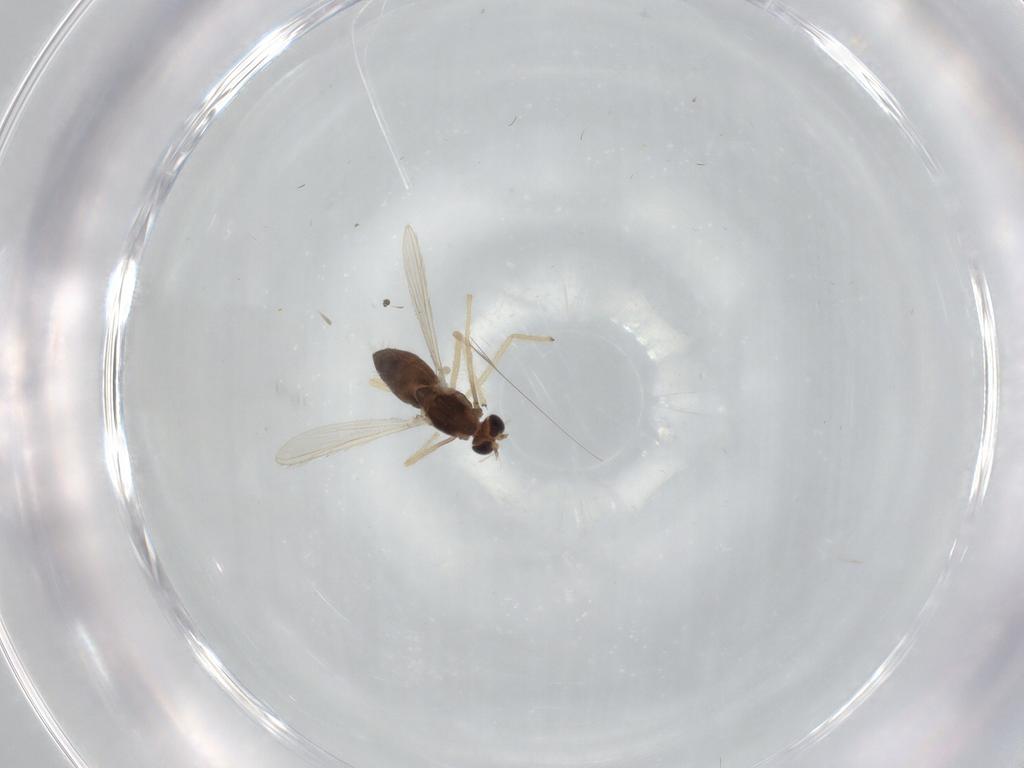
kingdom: Animalia
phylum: Arthropoda
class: Insecta
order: Diptera
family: Chironomidae
